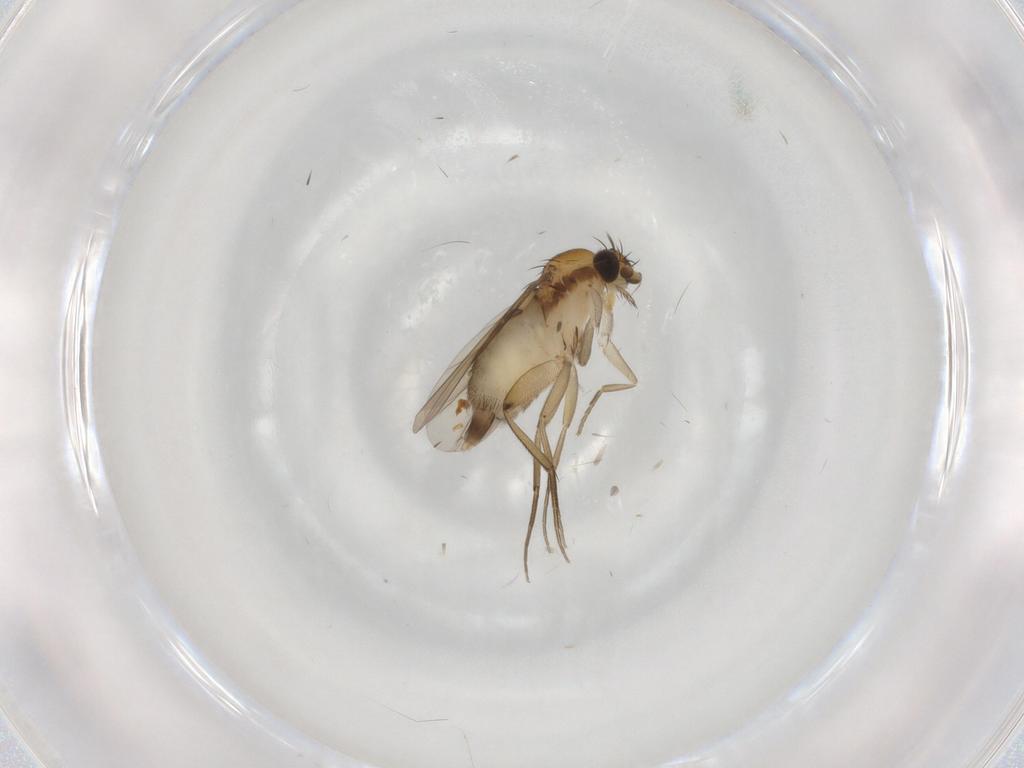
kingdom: Animalia
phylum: Arthropoda
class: Insecta
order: Diptera
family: Phoridae
